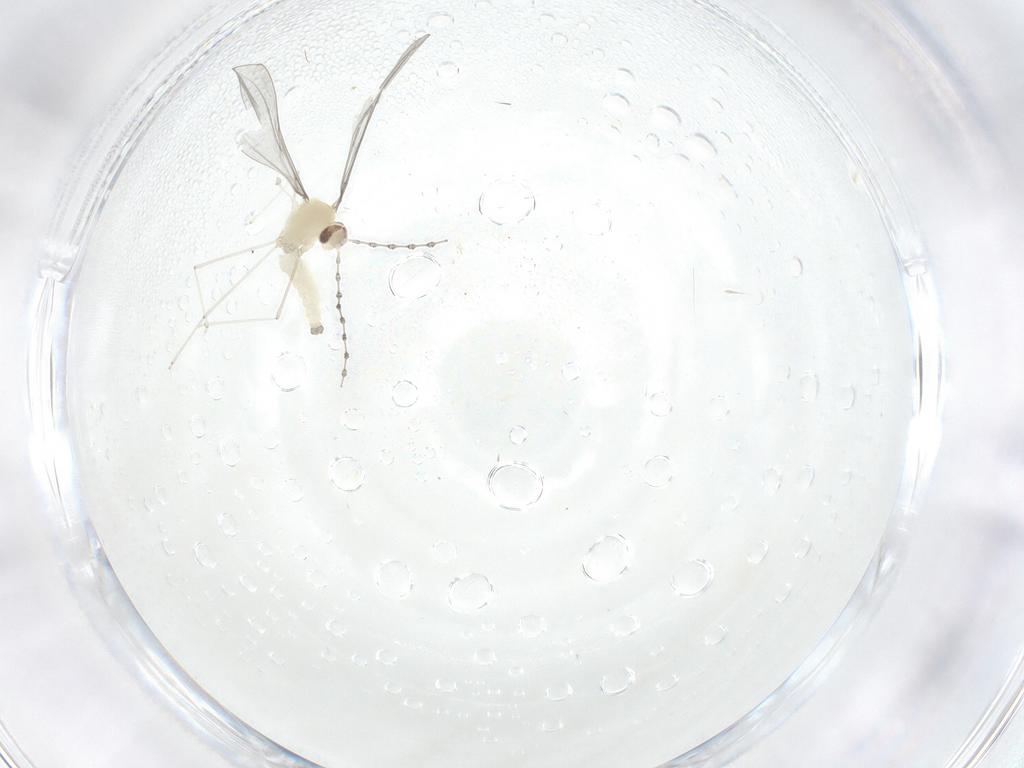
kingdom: Animalia
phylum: Arthropoda
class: Insecta
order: Diptera
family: Cecidomyiidae
